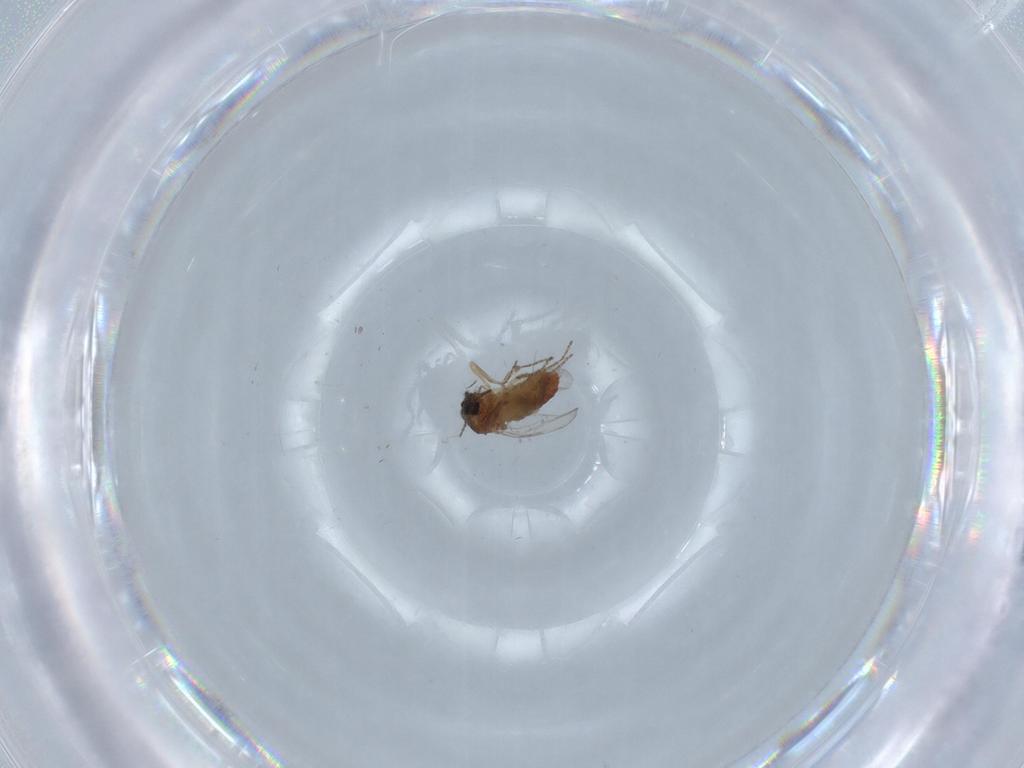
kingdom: Animalia
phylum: Arthropoda
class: Insecta
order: Diptera
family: Ceratopogonidae
